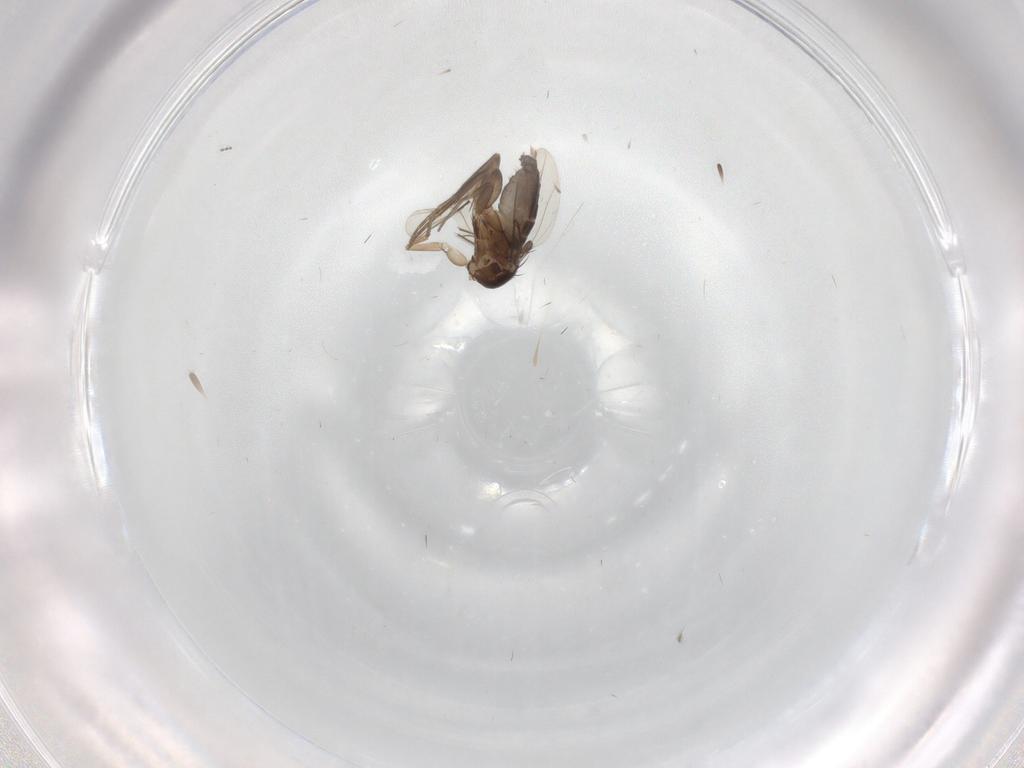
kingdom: Animalia
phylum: Arthropoda
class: Insecta
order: Diptera
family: Phoridae
